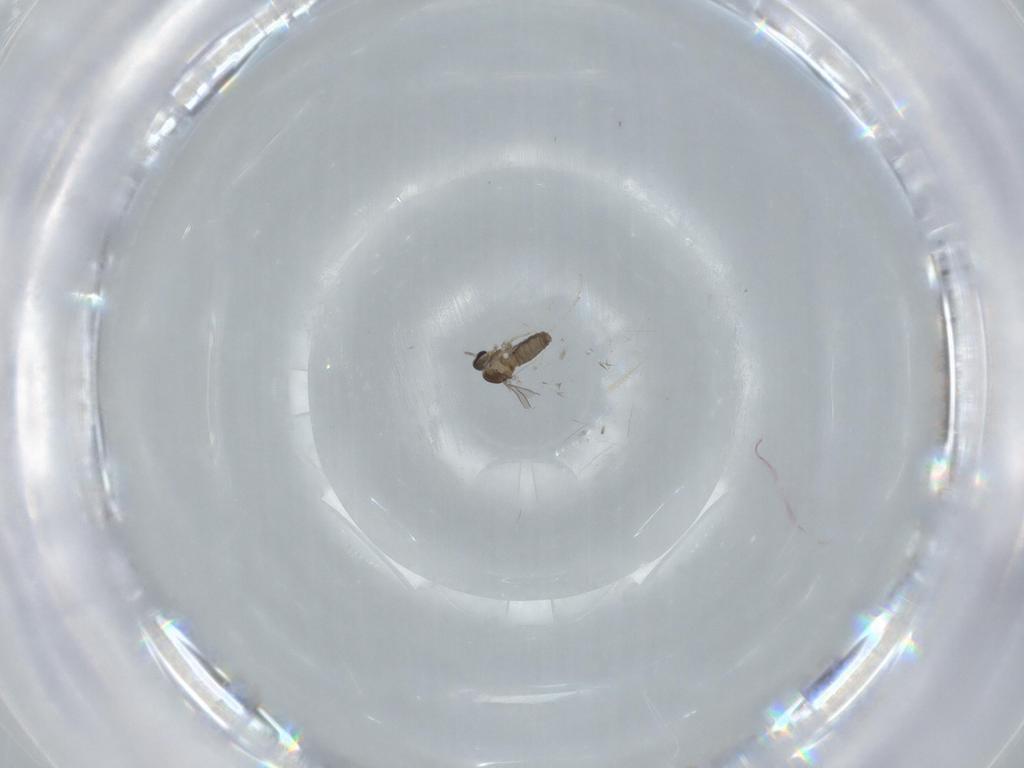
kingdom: Animalia
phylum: Arthropoda
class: Insecta
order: Diptera
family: Cecidomyiidae
